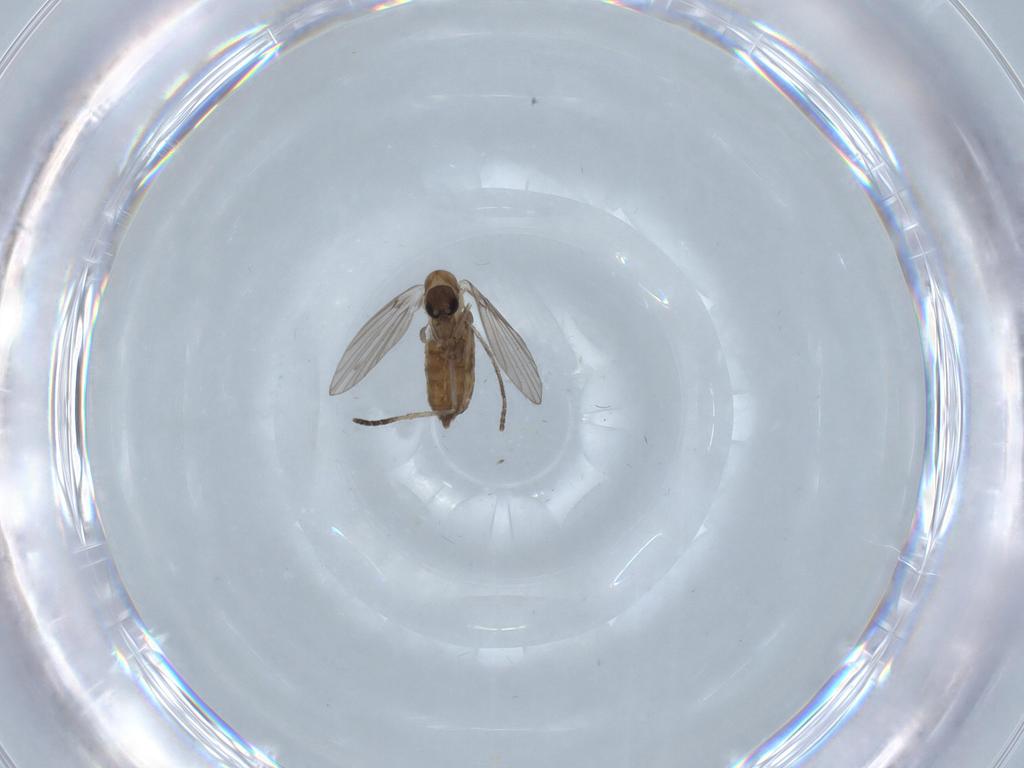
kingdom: Animalia
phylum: Arthropoda
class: Insecta
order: Diptera
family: Psychodidae
